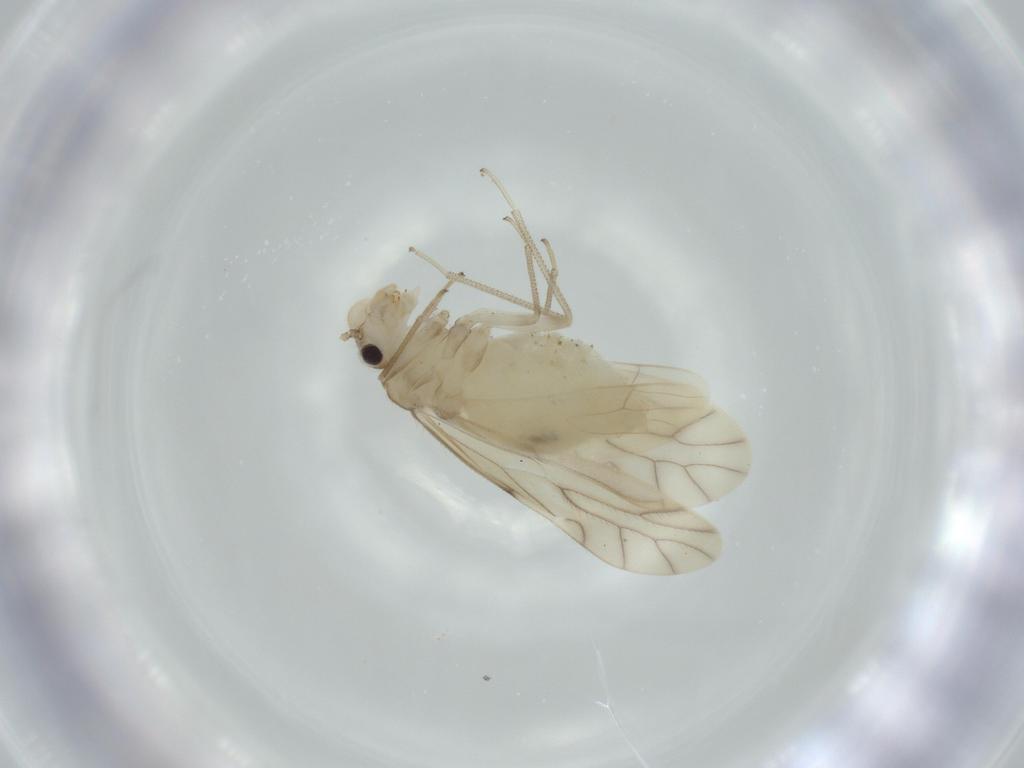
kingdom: Animalia
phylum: Arthropoda
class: Insecta
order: Psocodea
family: Caeciliusidae
